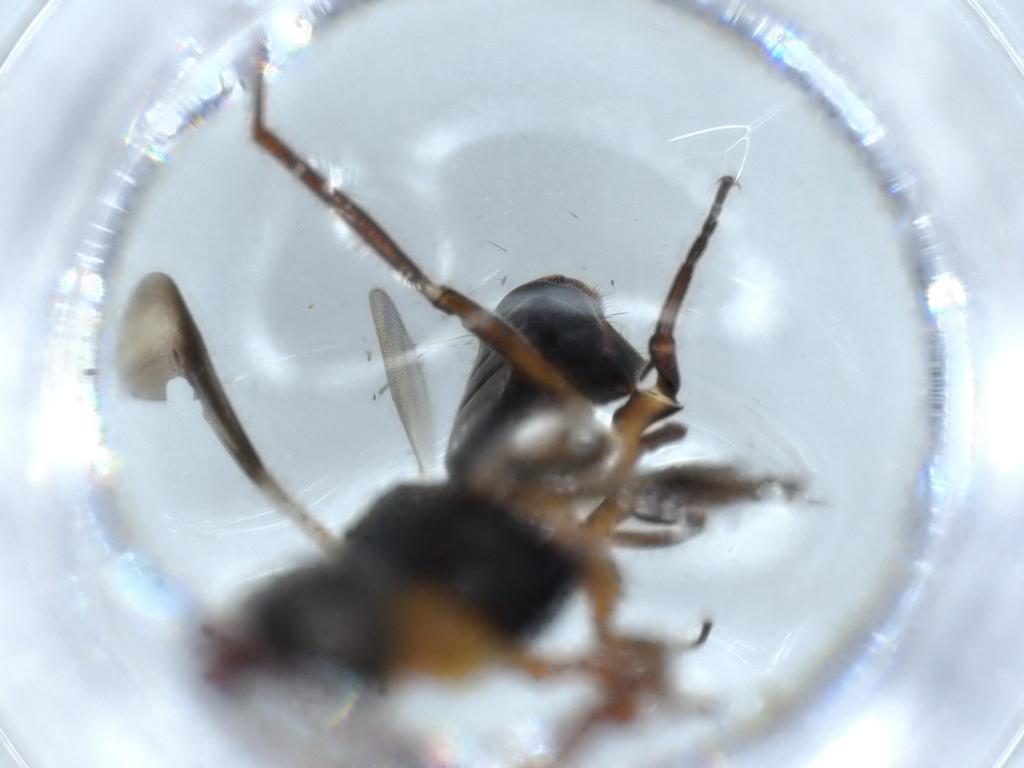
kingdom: Animalia
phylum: Arthropoda
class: Insecta
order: Hymenoptera
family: Eupelmidae
